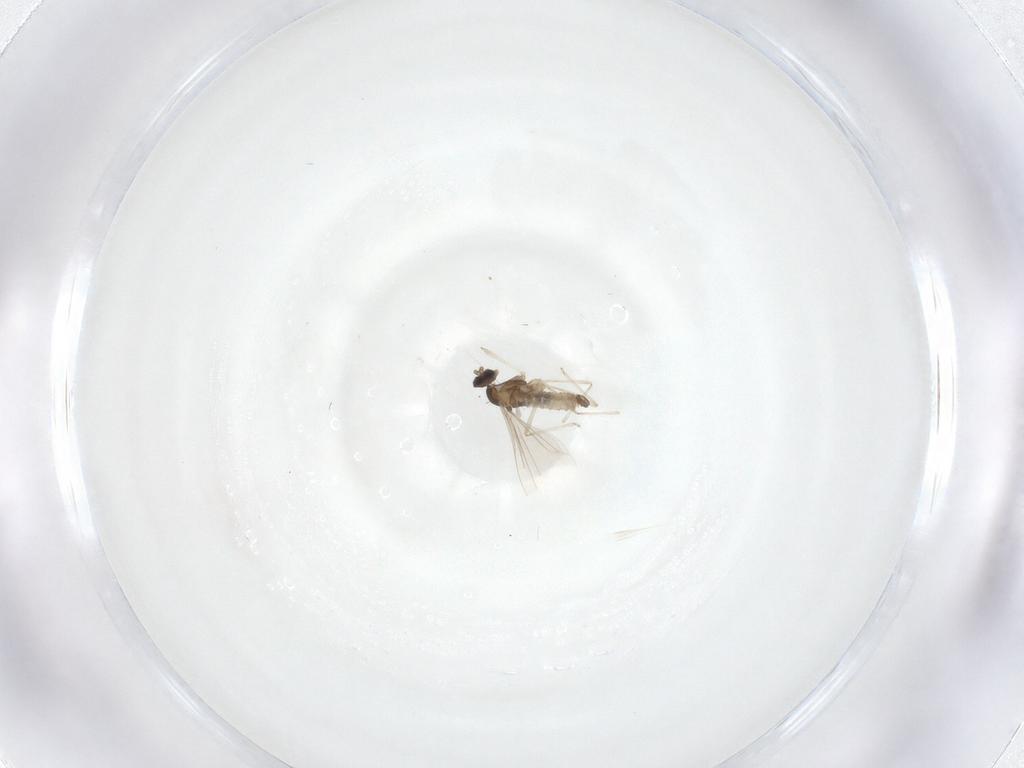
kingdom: Animalia
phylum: Arthropoda
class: Insecta
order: Diptera
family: Cecidomyiidae
